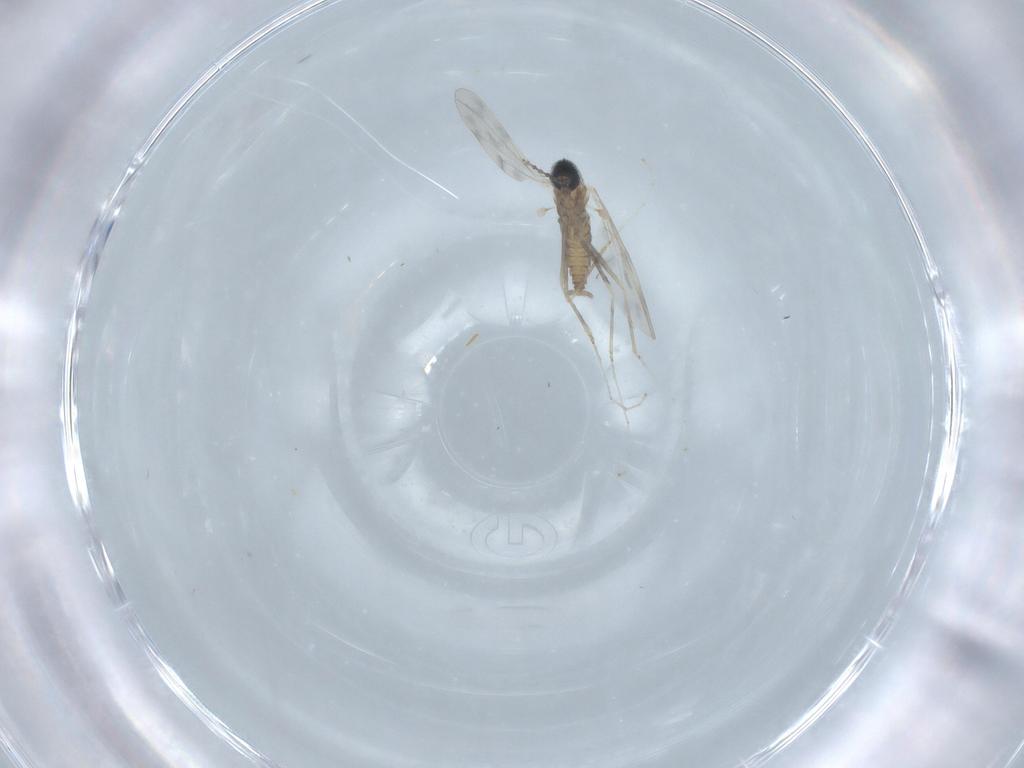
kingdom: Animalia
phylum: Arthropoda
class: Insecta
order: Diptera
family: Cecidomyiidae
